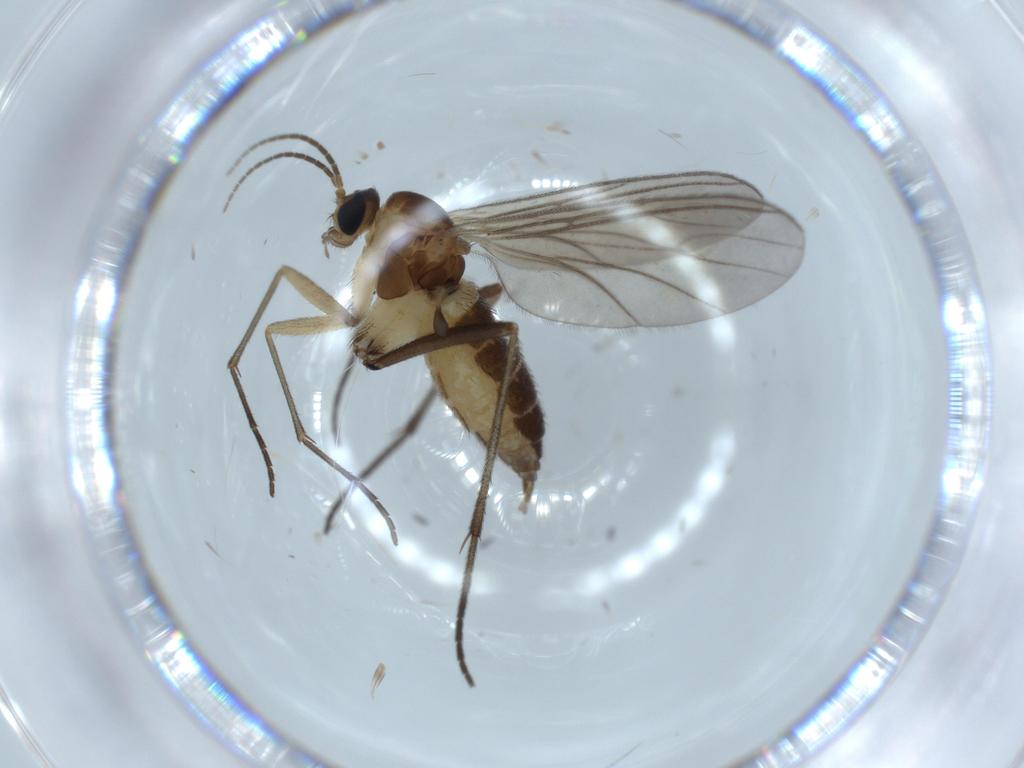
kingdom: Animalia
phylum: Arthropoda
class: Insecta
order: Diptera
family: Sciaridae
